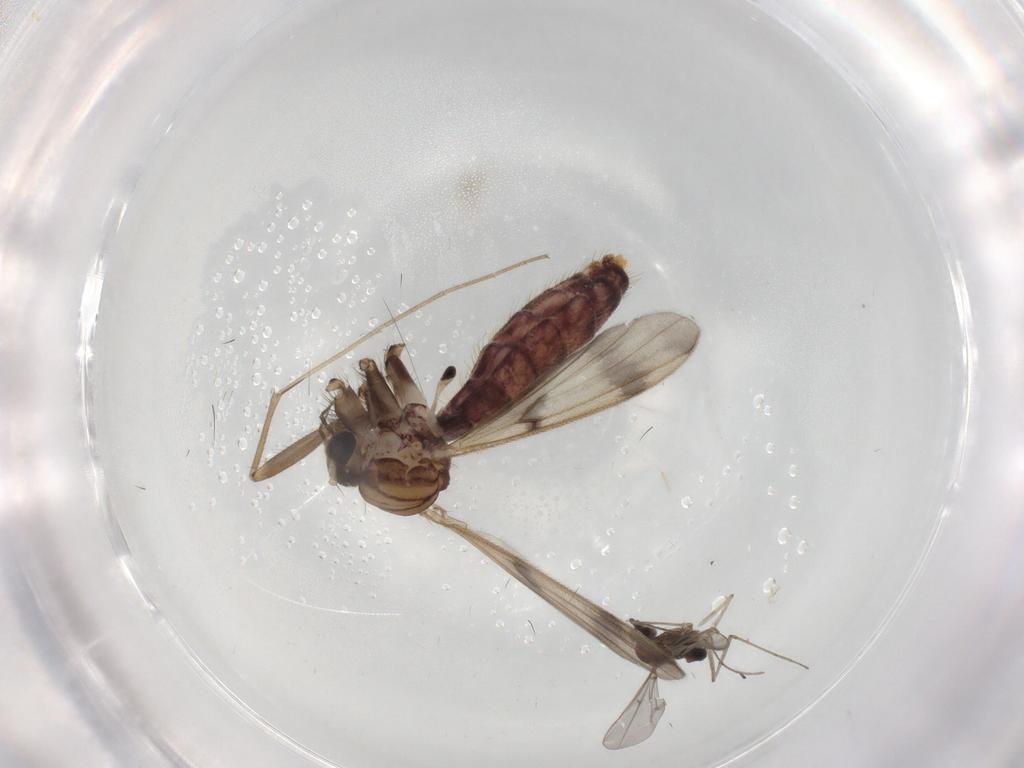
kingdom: Animalia
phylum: Arthropoda
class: Insecta
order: Diptera
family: Mycetophilidae
